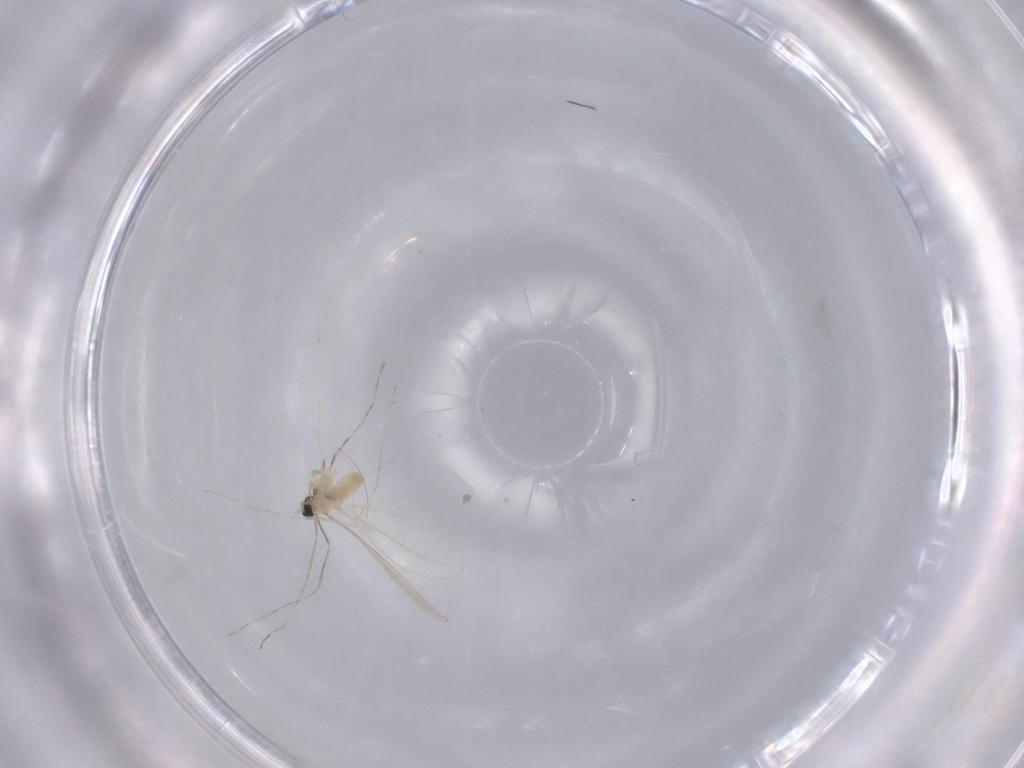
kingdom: Animalia
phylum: Arthropoda
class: Insecta
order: Diptera
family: Cecidomyiidae
